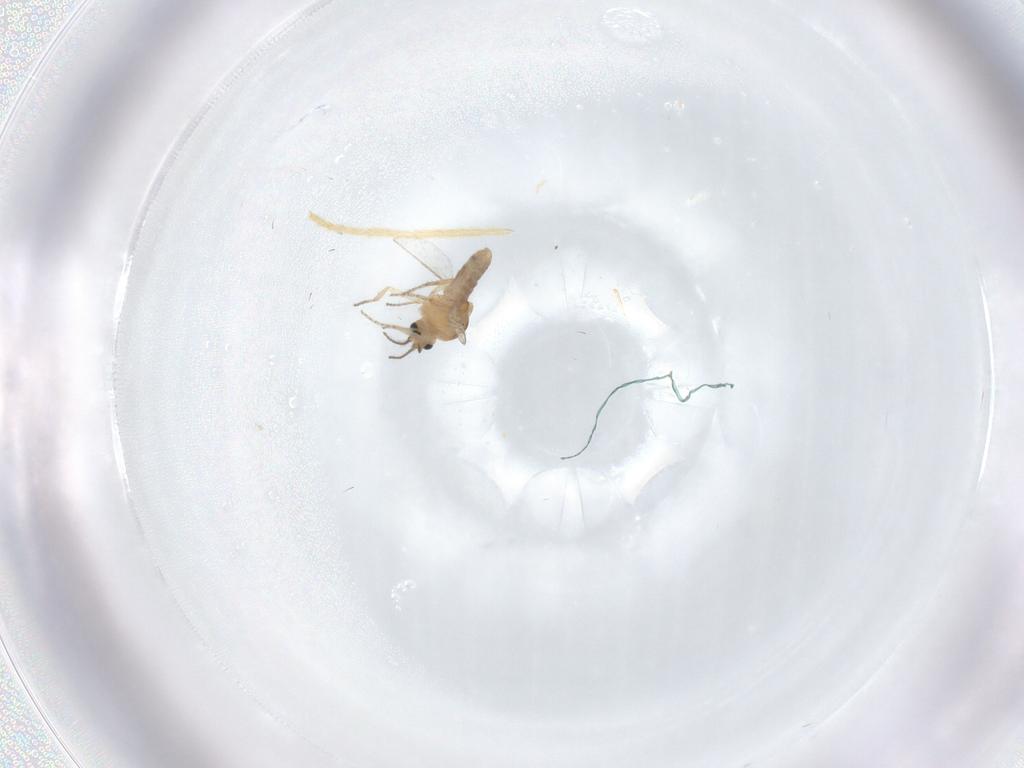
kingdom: Animalia
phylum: Arthropoda
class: Insecta
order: Diptera
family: Ceratopogonidae
